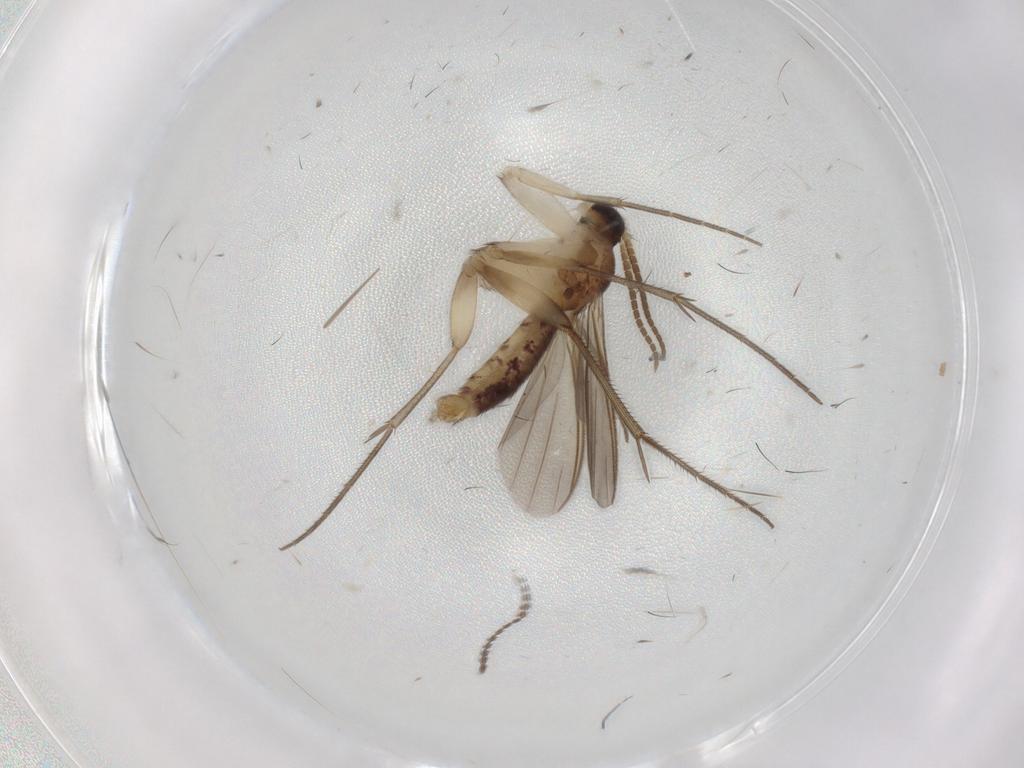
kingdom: Animalia
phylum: Arthropoda
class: Insecta
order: Diptera
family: Mycetophilidae
